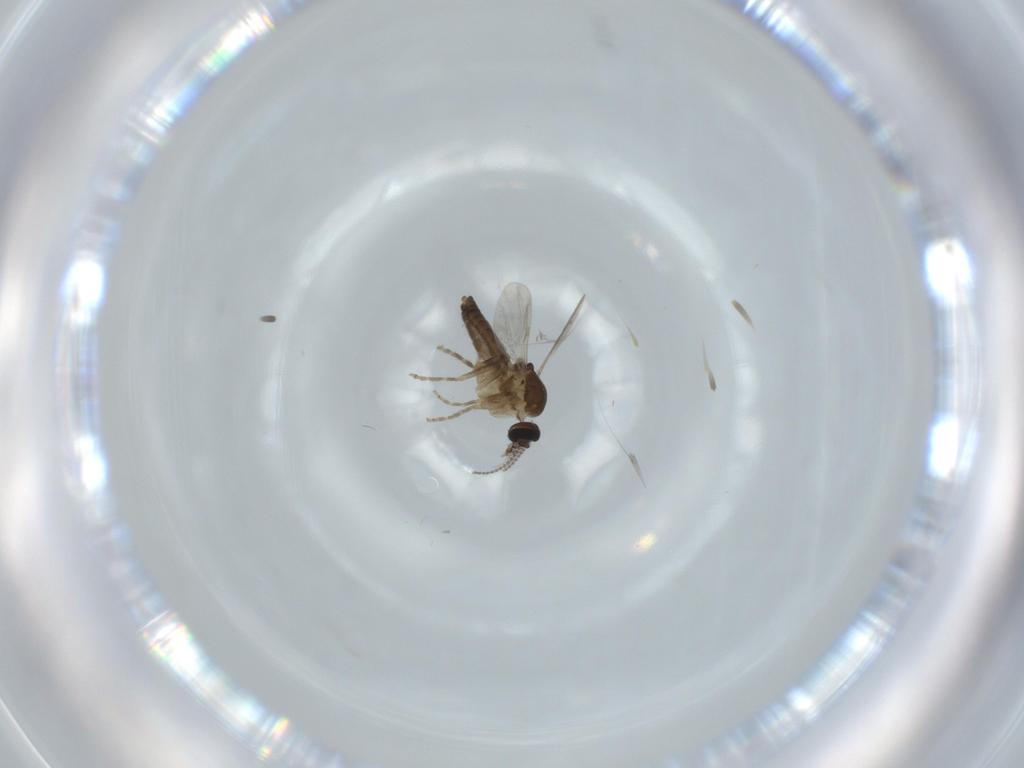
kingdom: Animalia
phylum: Arthropoda
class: Insecta
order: Diptera
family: Ceratopogonidae
